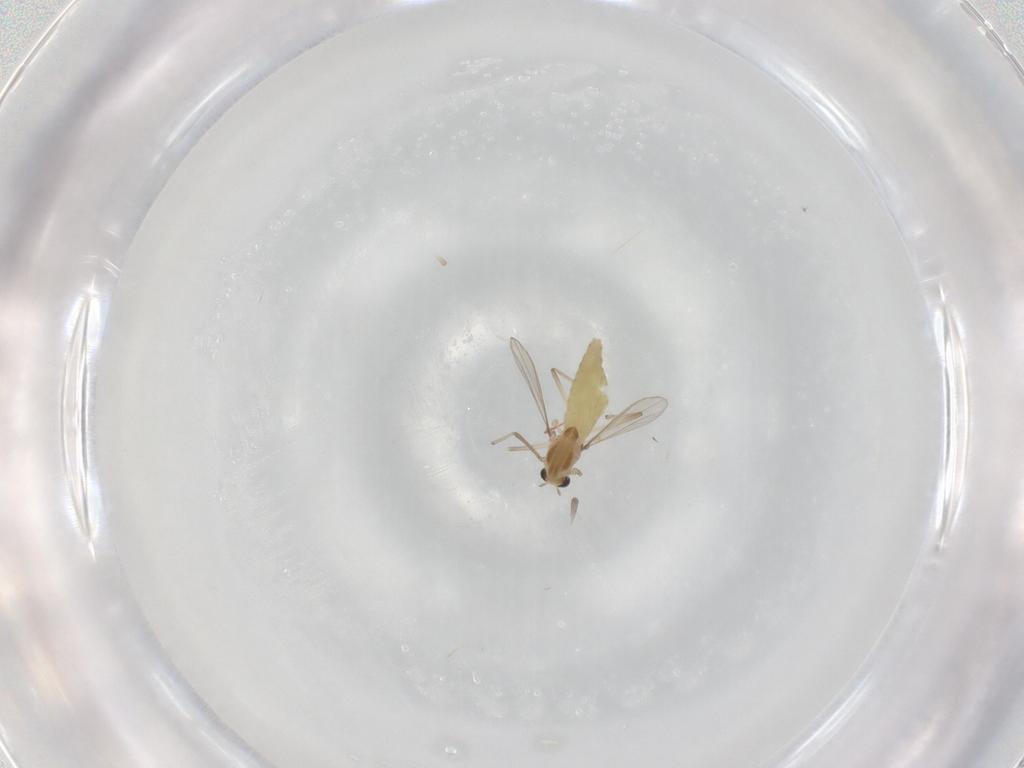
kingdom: Animalia
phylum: Arthropoda
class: Insecta
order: Diptera
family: Chironomidae
